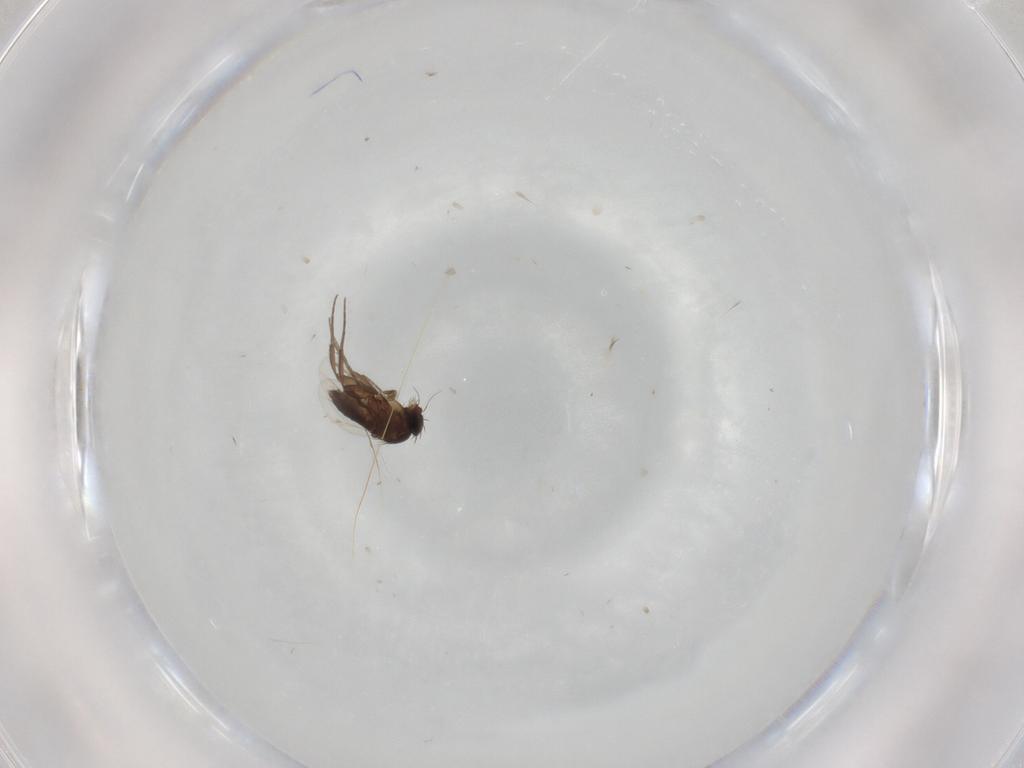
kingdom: Animalia
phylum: Arthropoda
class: Insecta
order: Diptera
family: Phoridae
